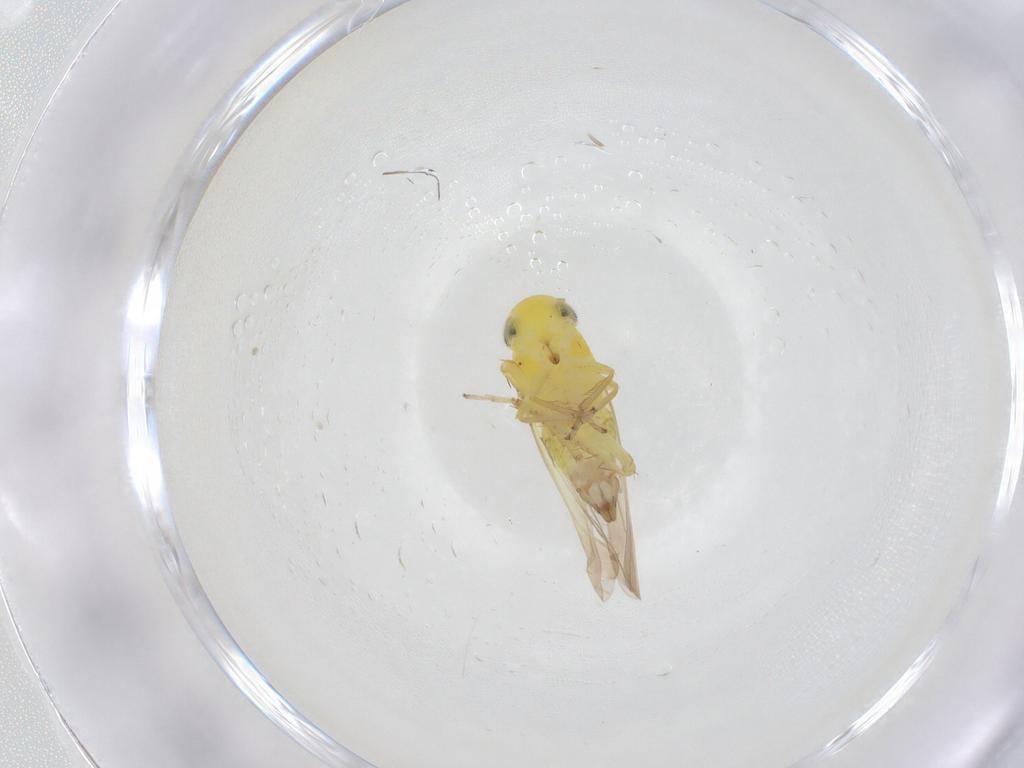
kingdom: Animalia
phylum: Arthropoda
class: Insecta
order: Hemiptera
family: Cicadellidae
